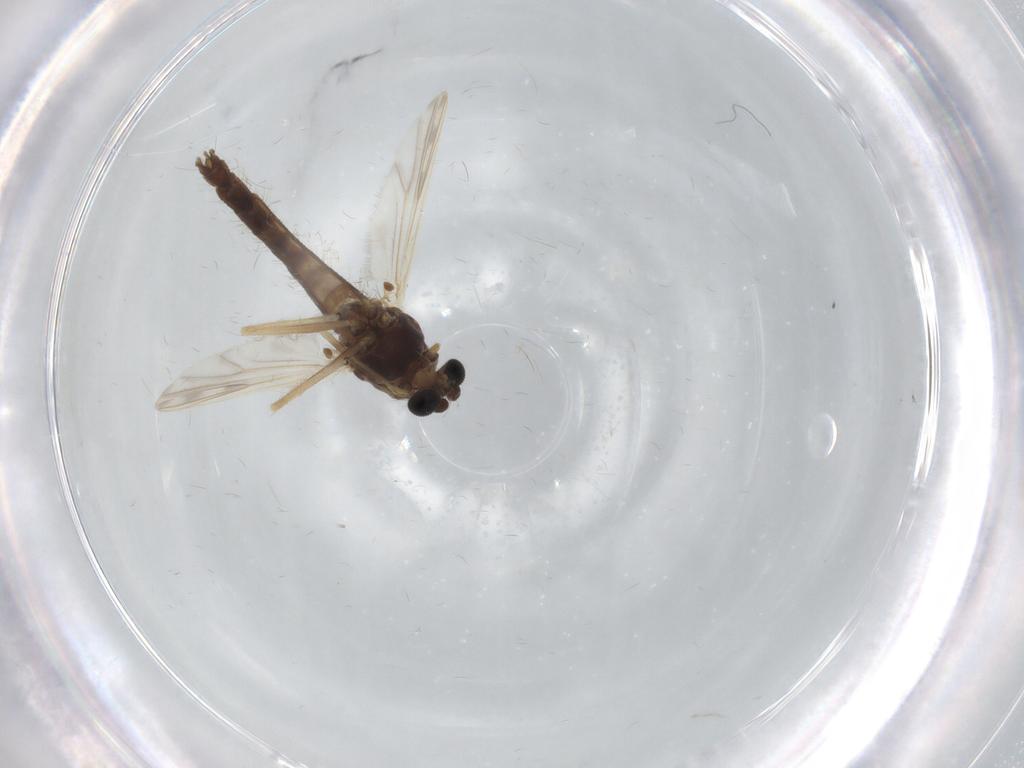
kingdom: Animalia
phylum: Arthropoda
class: Insecta
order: Diptera
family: Chironomidae
